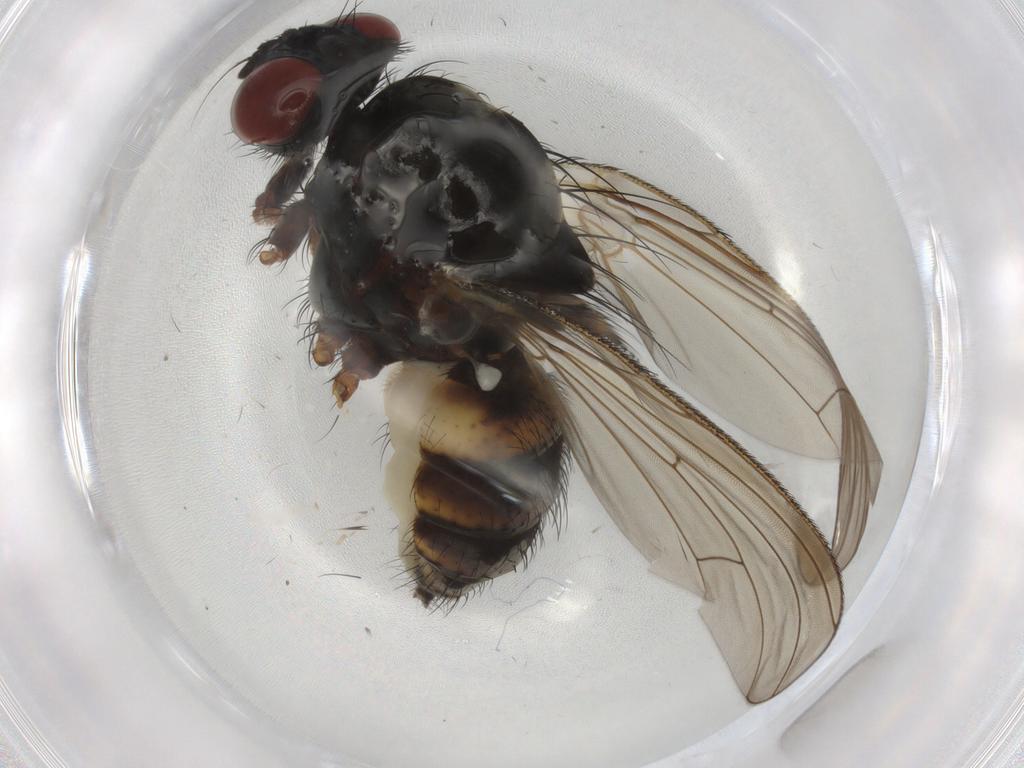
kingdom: Animalia
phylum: Arthropoda
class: Insecta
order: Diptera
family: Anthomyiidae
